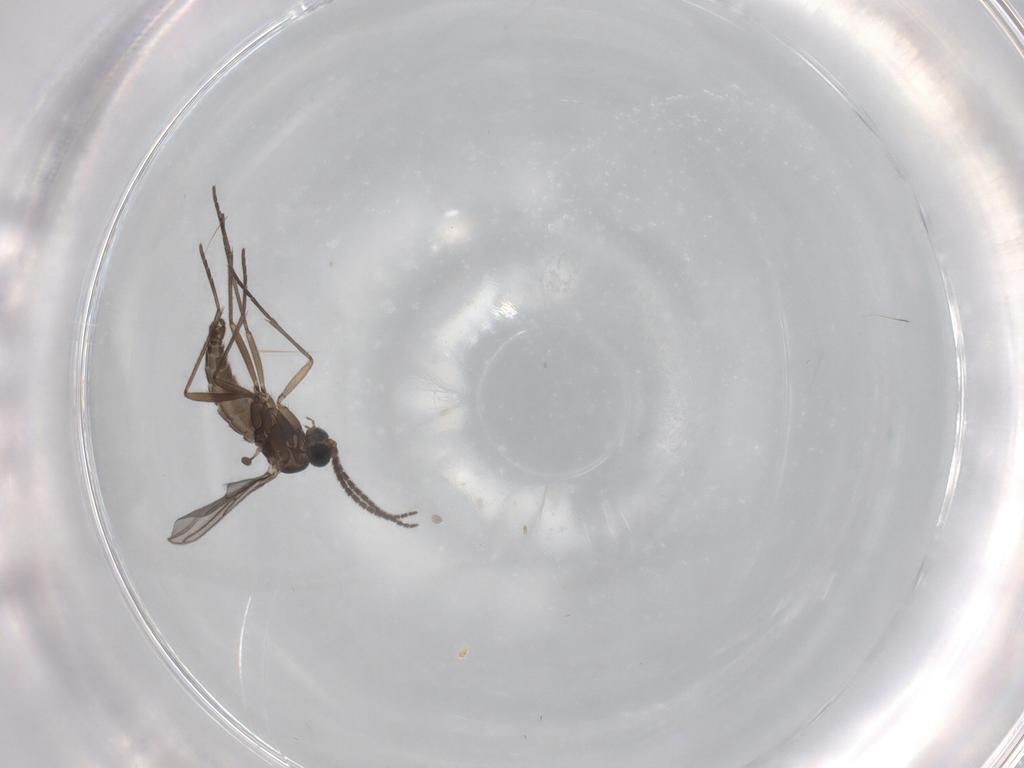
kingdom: Animalia
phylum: Arthropoda
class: Insecta
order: Diptera
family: Sciaridae
